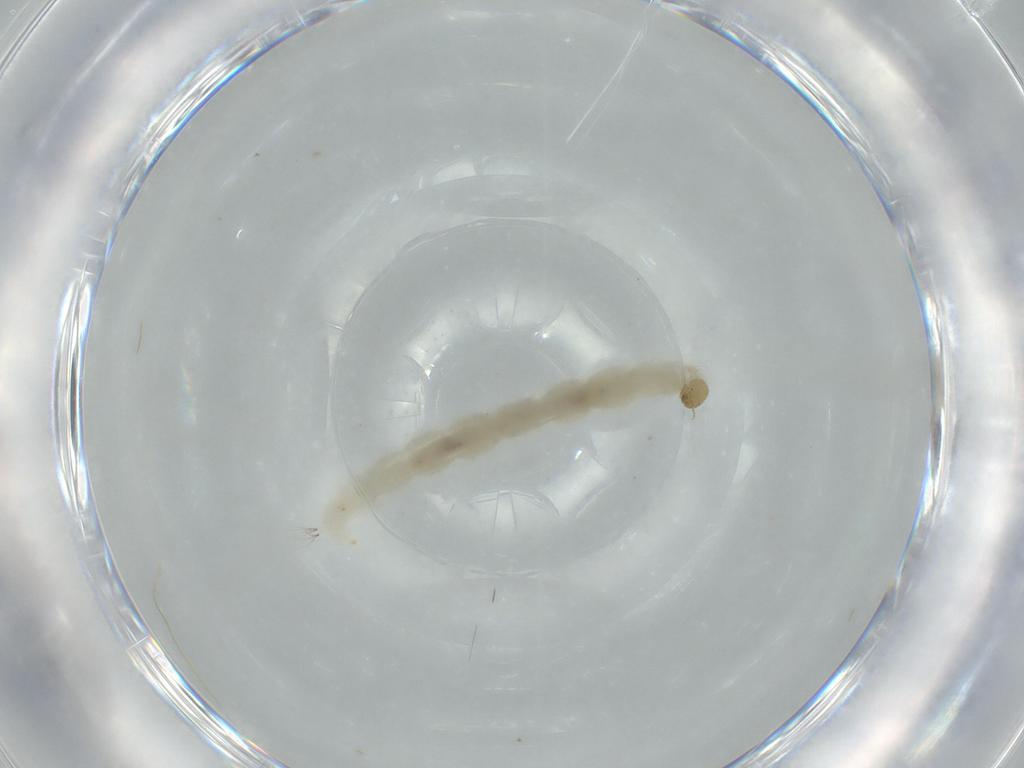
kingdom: Animalia
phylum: Arthropoda
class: Insecta
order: Diptera
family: Chironomidae
